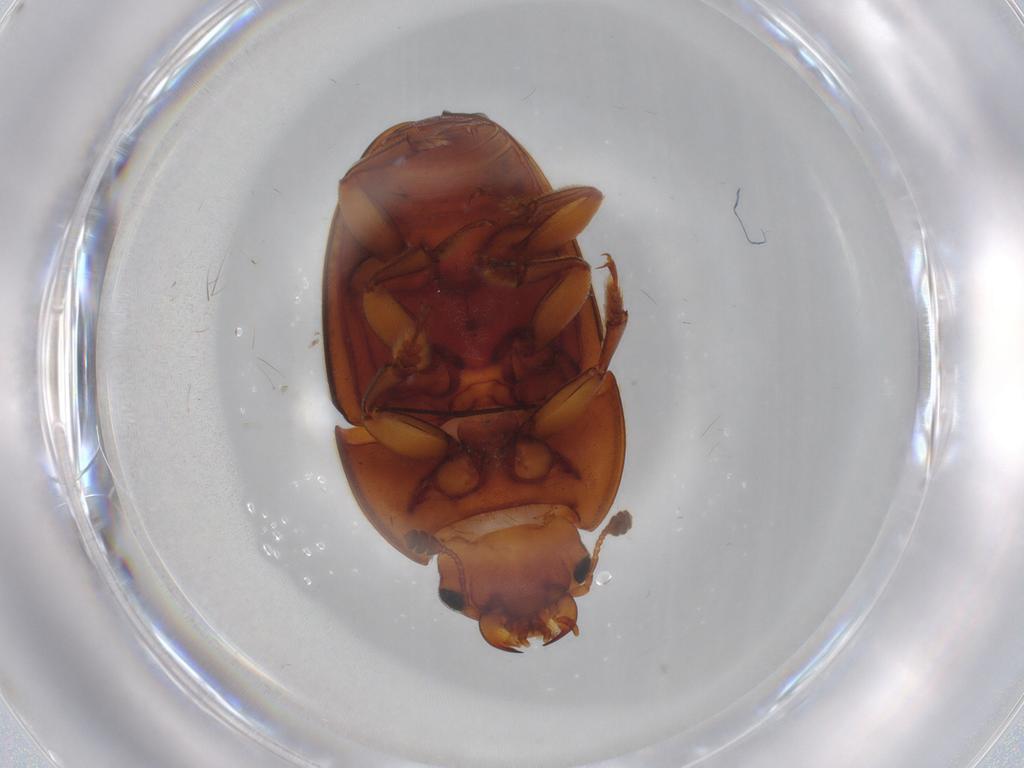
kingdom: Animalia
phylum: Arthropoda
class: Insecta
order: Coleoptera
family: Nitidulidae
